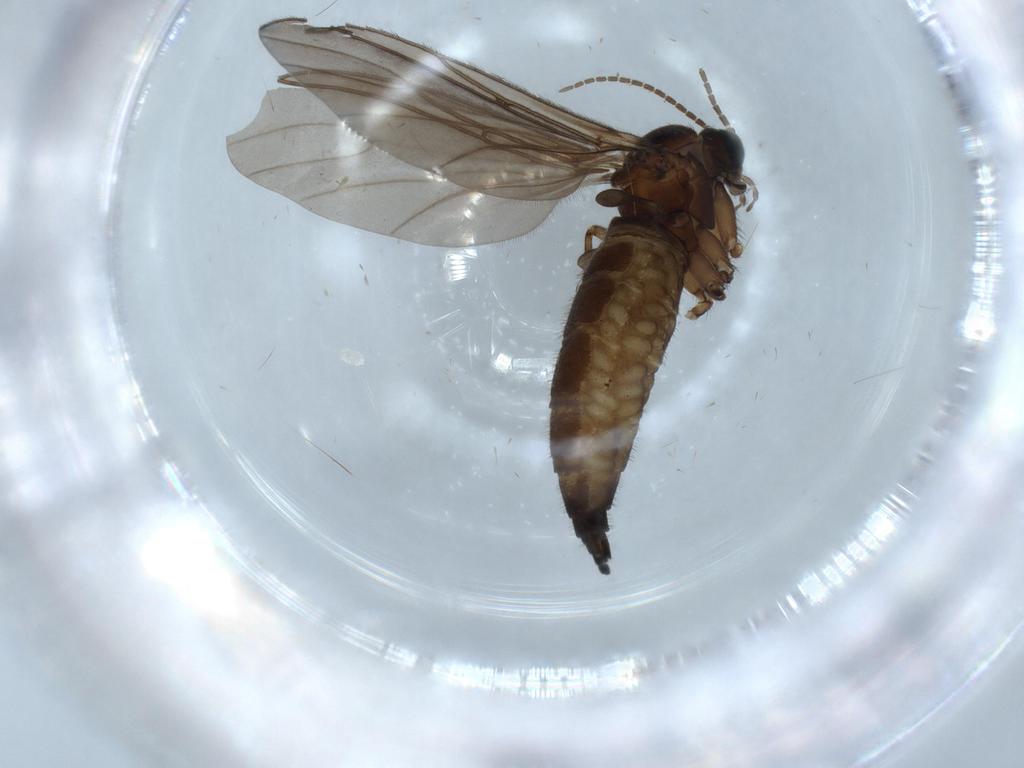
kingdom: Animalia
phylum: Arthropoda
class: Insecta
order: Diptera
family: Sciaridae
